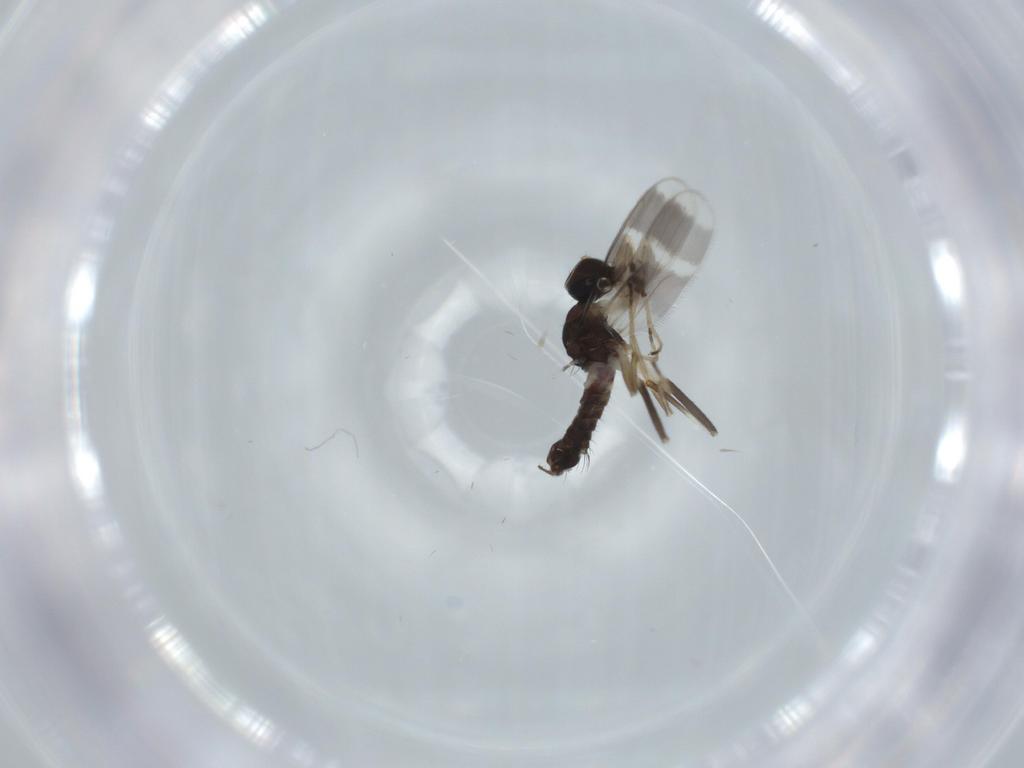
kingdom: Animalia
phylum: Arthropoda
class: Insecta
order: Diptera
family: Hybotidae
